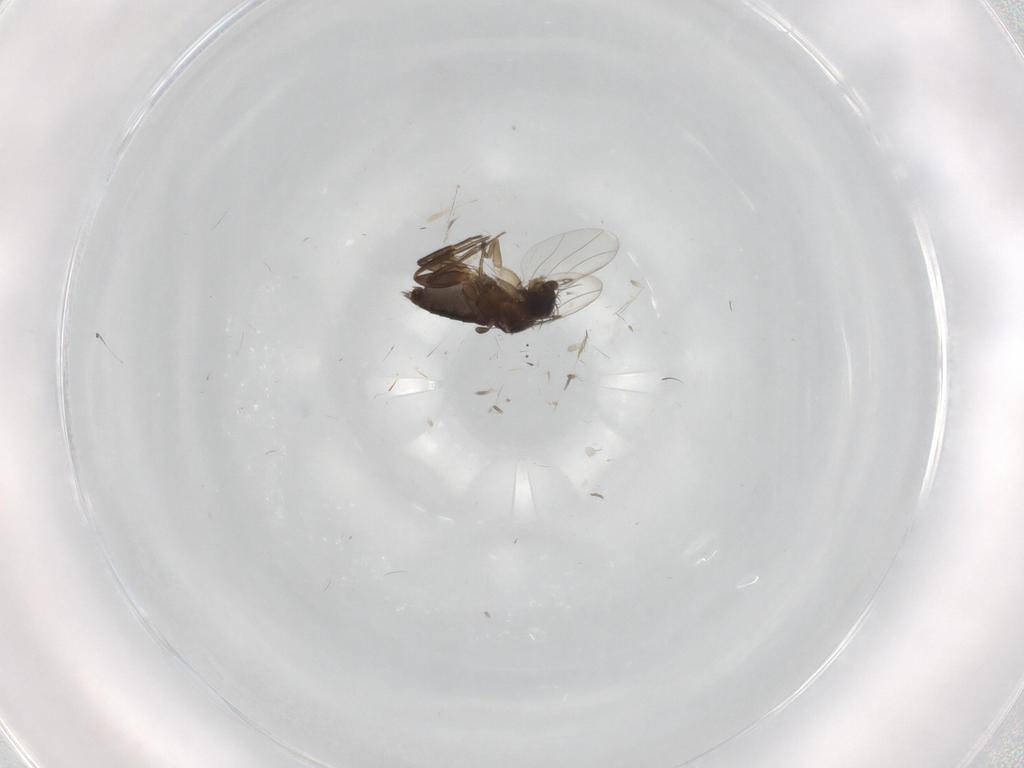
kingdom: Animalia
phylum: Arthropoda
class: Insecta
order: Diptera
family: Phoridae
